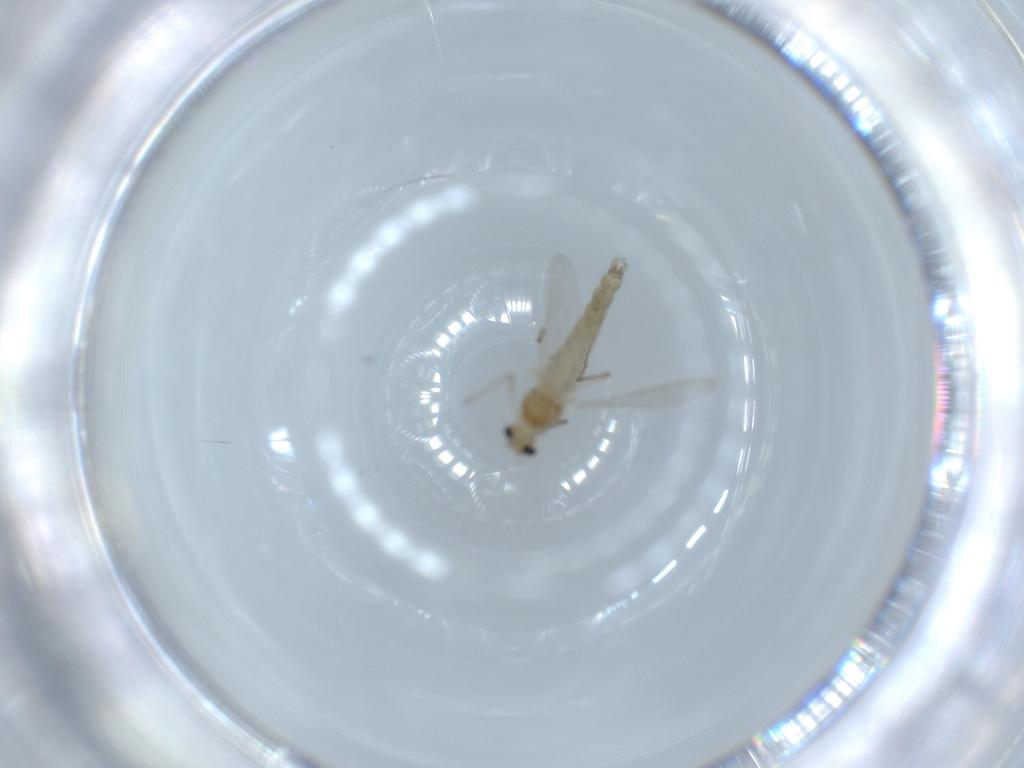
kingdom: Animalia
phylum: Arthropoda
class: Insecta
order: Diptera
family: Chironomidae
